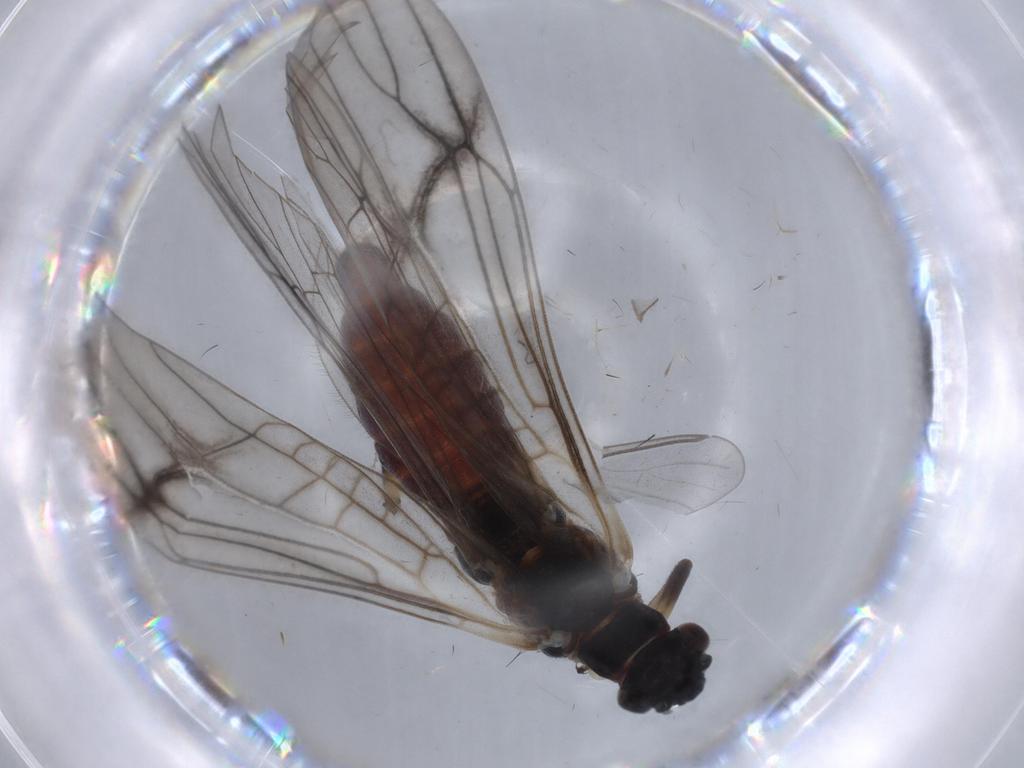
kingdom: Animalia
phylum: Arthropoda
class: Insecta
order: Plecoptera
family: Nemouridae
